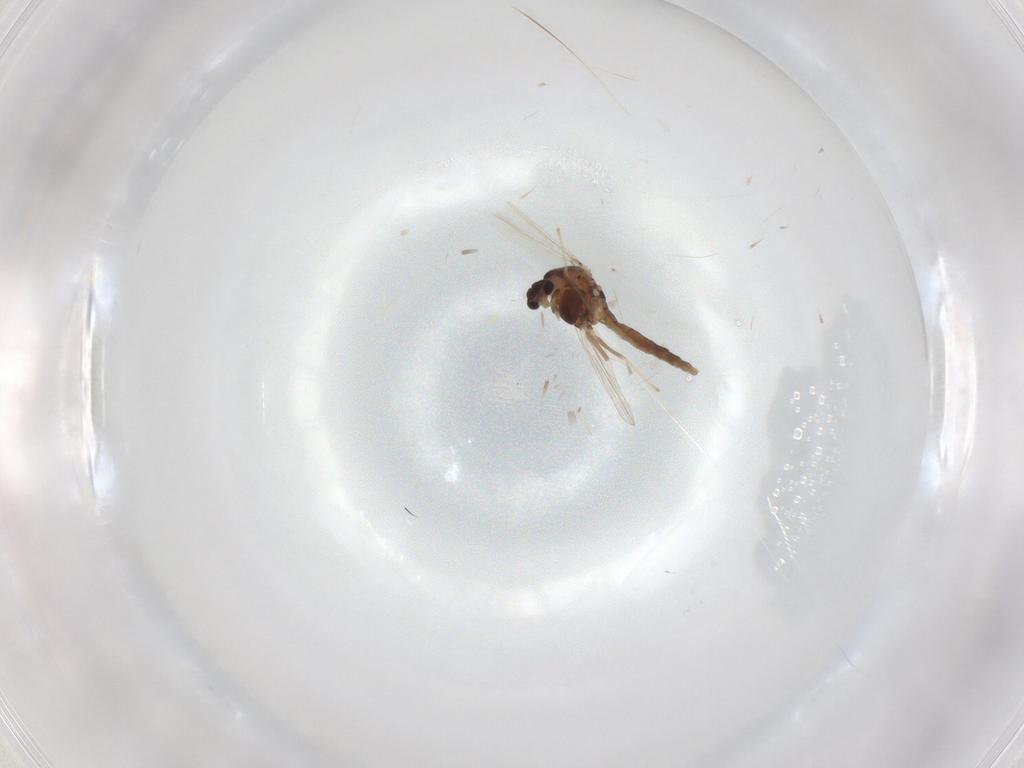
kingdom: Animalia
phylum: Arthropoda
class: Insecta
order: Diptera
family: Chironomidae
